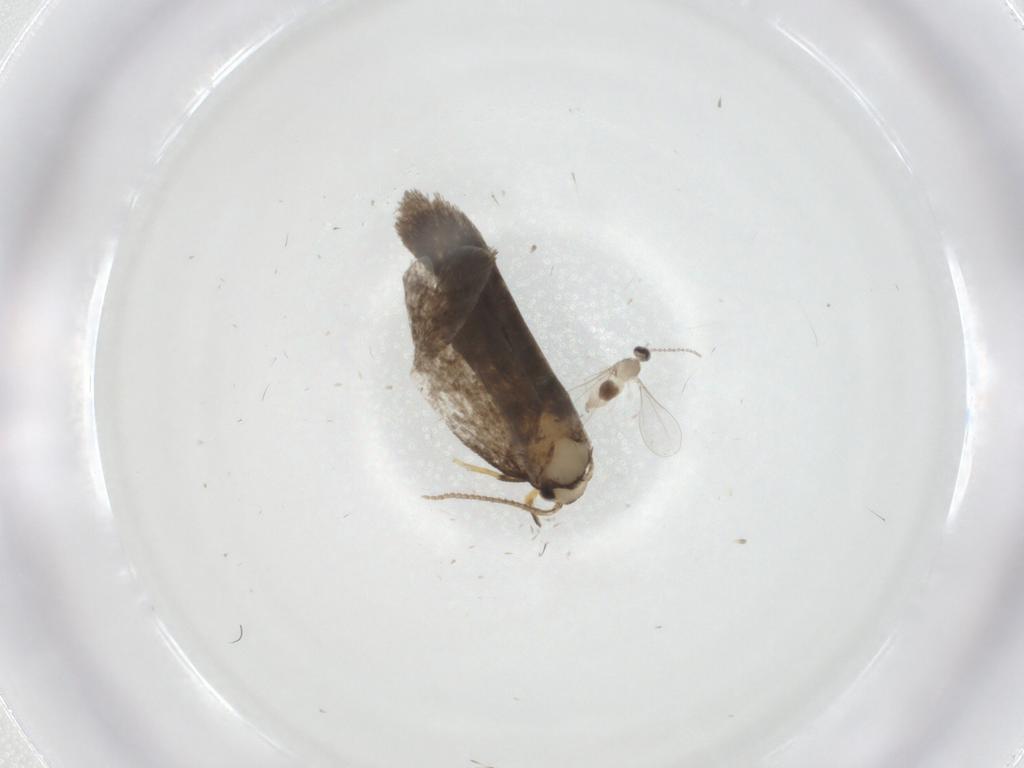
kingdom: Animalia
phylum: Arthropoda
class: Insecta
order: Lepidoptera
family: Psychidae
